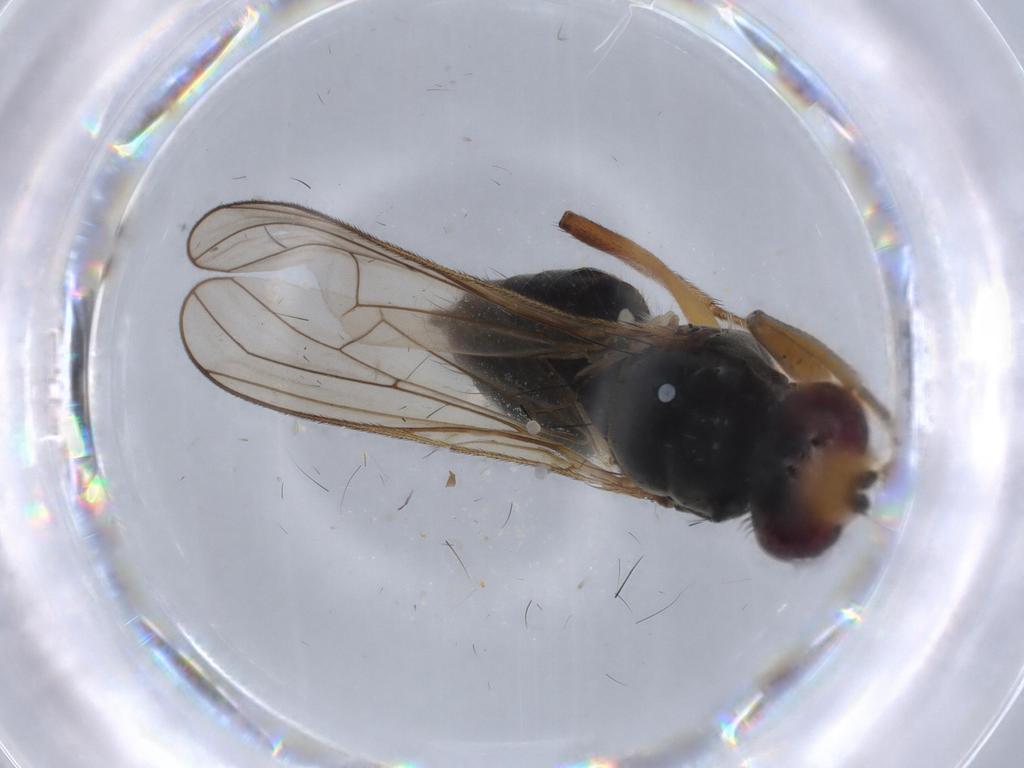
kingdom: Animalia
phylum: Arthropoda
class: Insecta
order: Diptera
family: Scathophagidae
